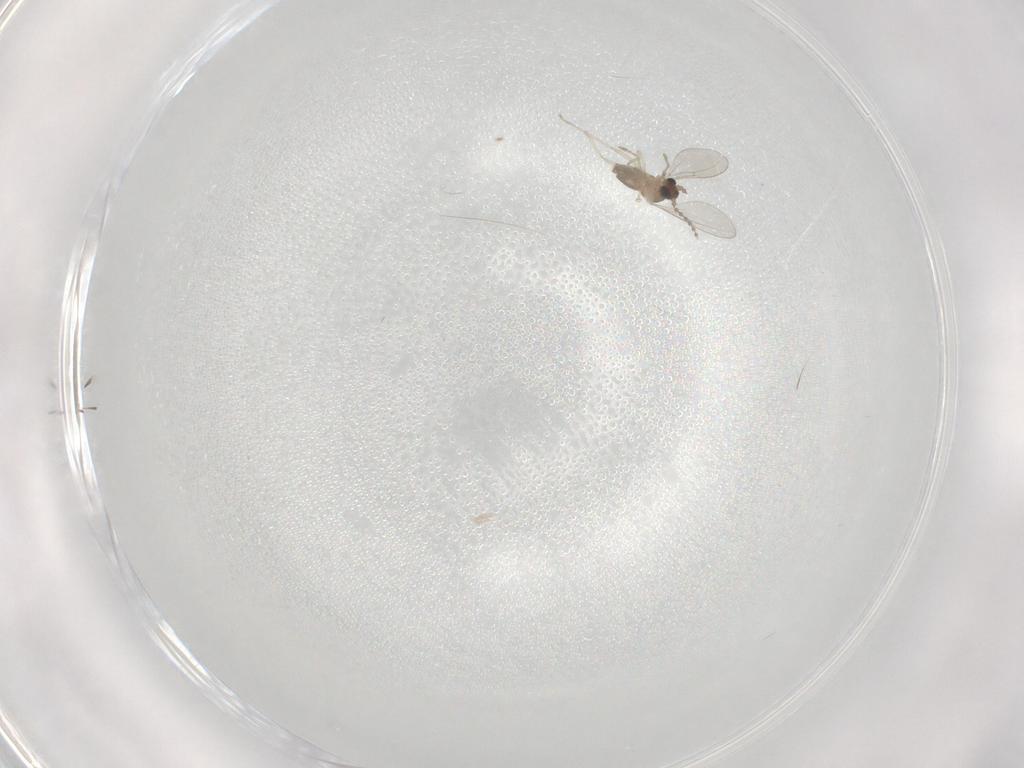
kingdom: Animalia
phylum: Arthropoda
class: Insecta
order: Diptera
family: Cecidomyiidae
